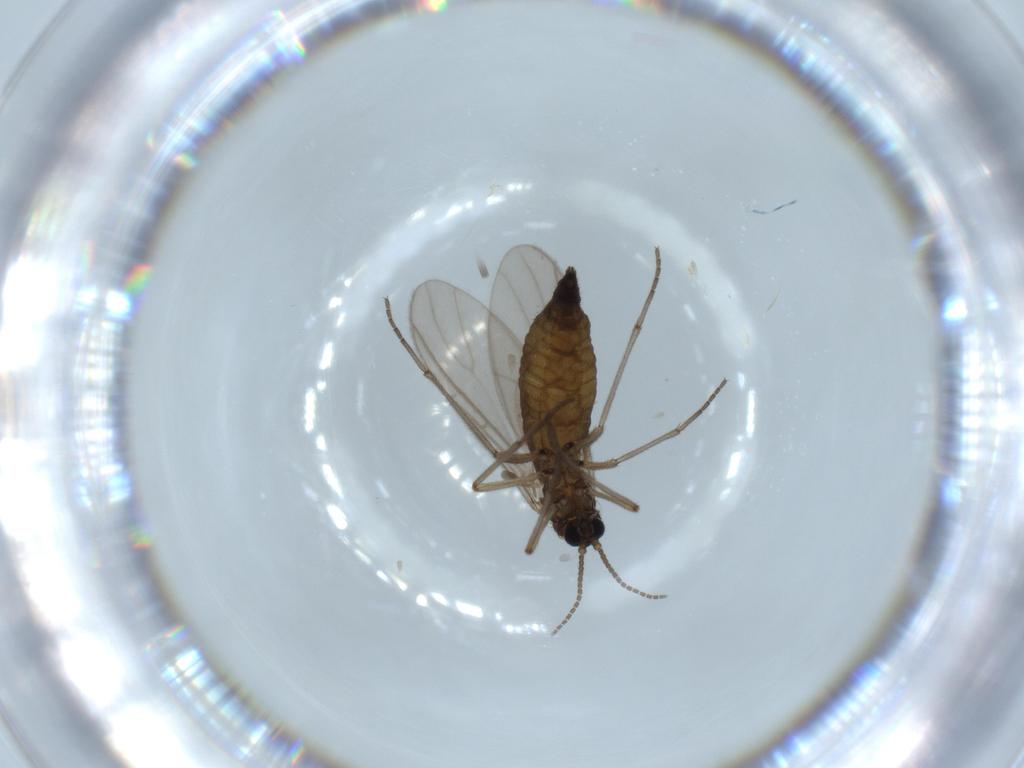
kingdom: Animalia
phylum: Arthropoda
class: Insecta
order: Diptera
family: Sciaridae
